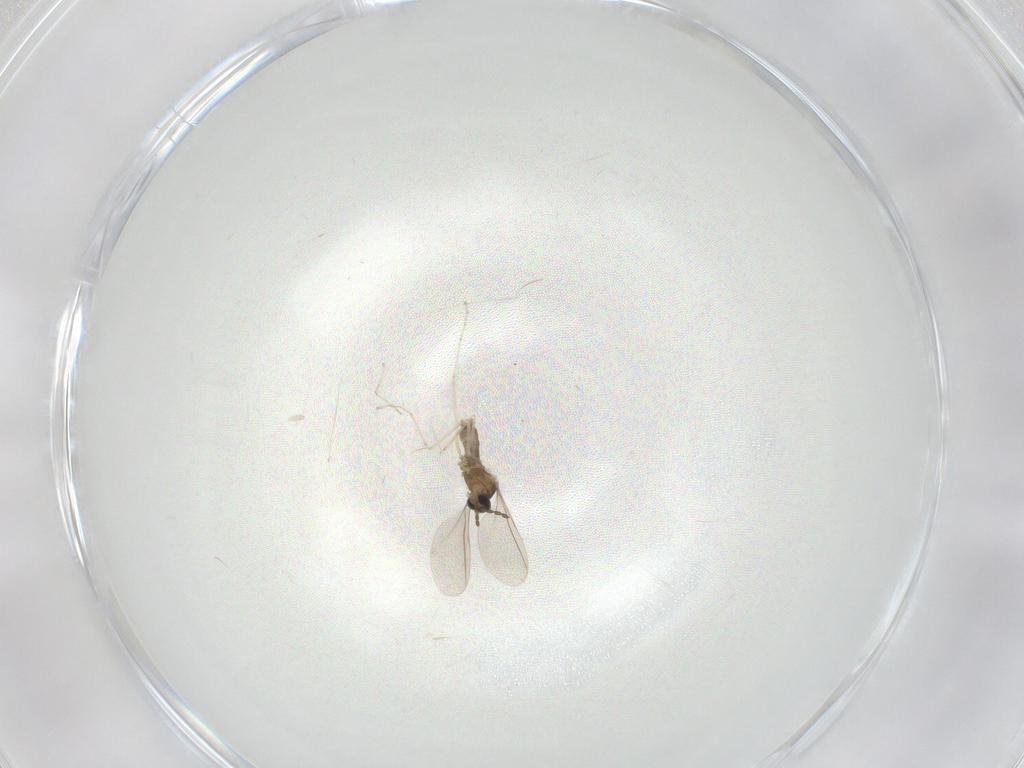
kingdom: Animalia
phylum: Arthropoda
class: Insecta
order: Diptera
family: Cecidomyiidae
